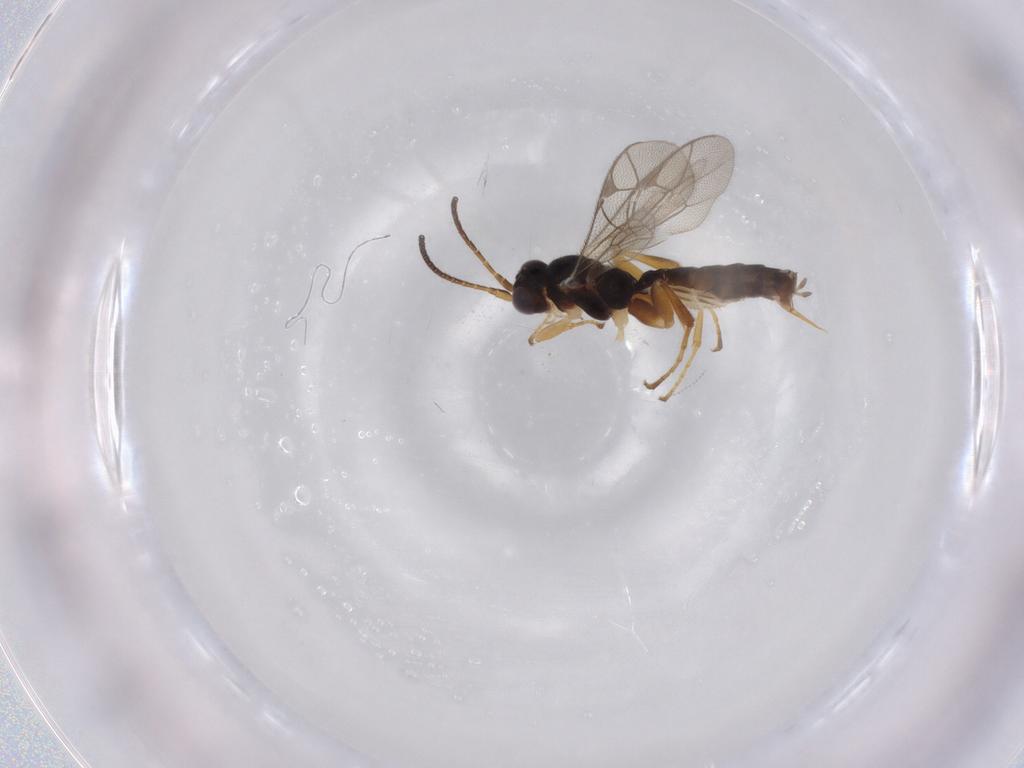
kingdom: Animalia
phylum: Arthropoda
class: Insecta
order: Hymenoptera
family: Ichneumonidae
